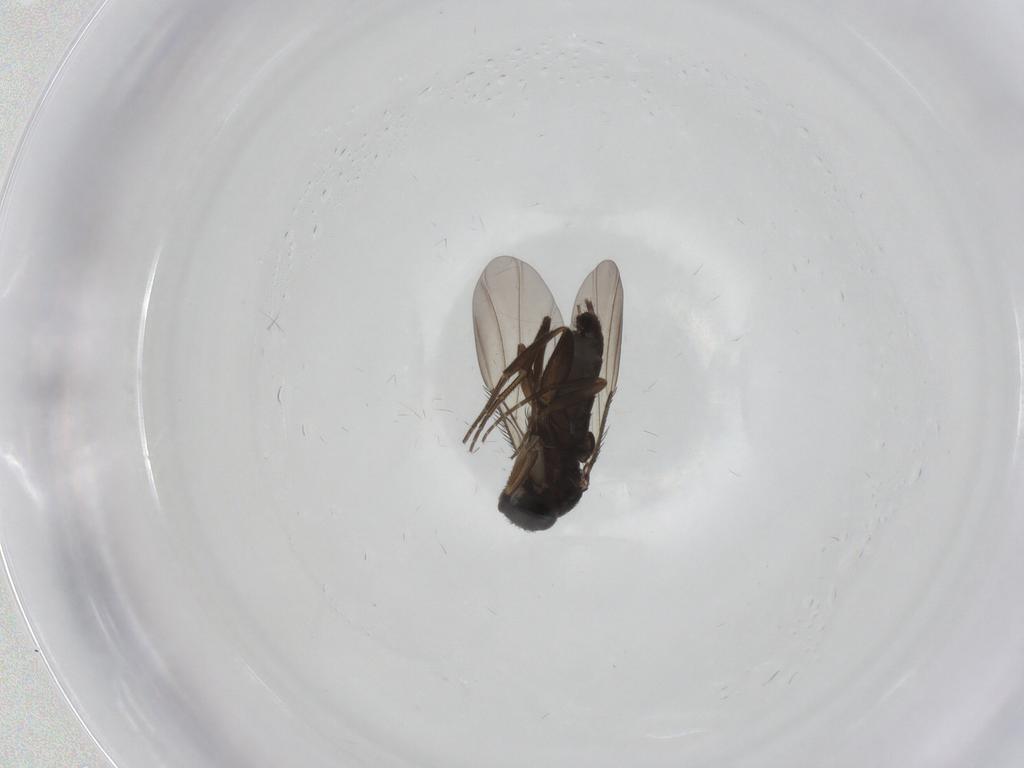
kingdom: Animalia
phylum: Arthropoda
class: Insecta
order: Diptera
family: Phoridae
